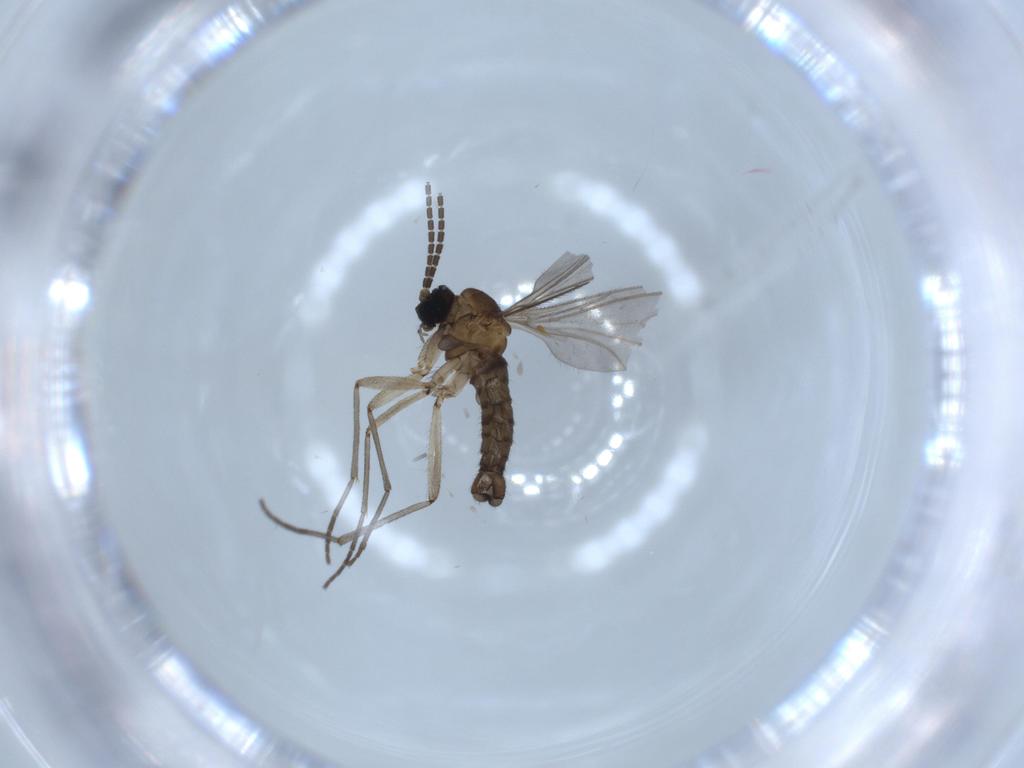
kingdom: Animalia
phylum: Arthropoda
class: Insecta
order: Diptera
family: Sciaridae
